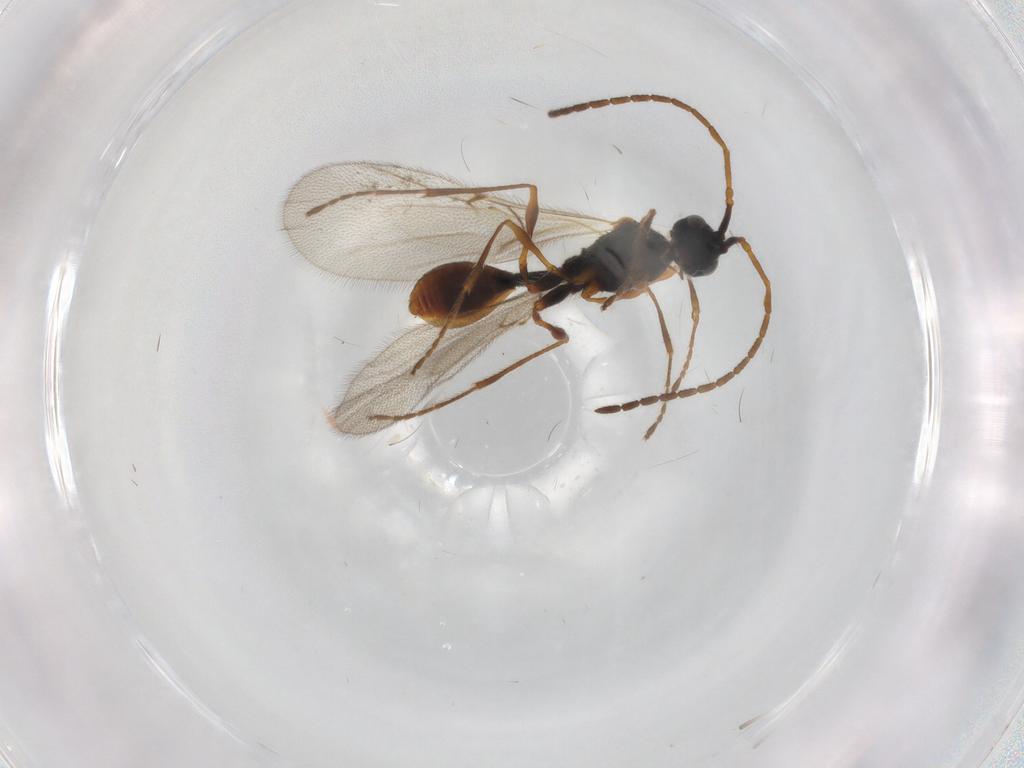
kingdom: Animalia
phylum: Arthropoda
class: Insecta
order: Hymenoptera
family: Diapriidae
